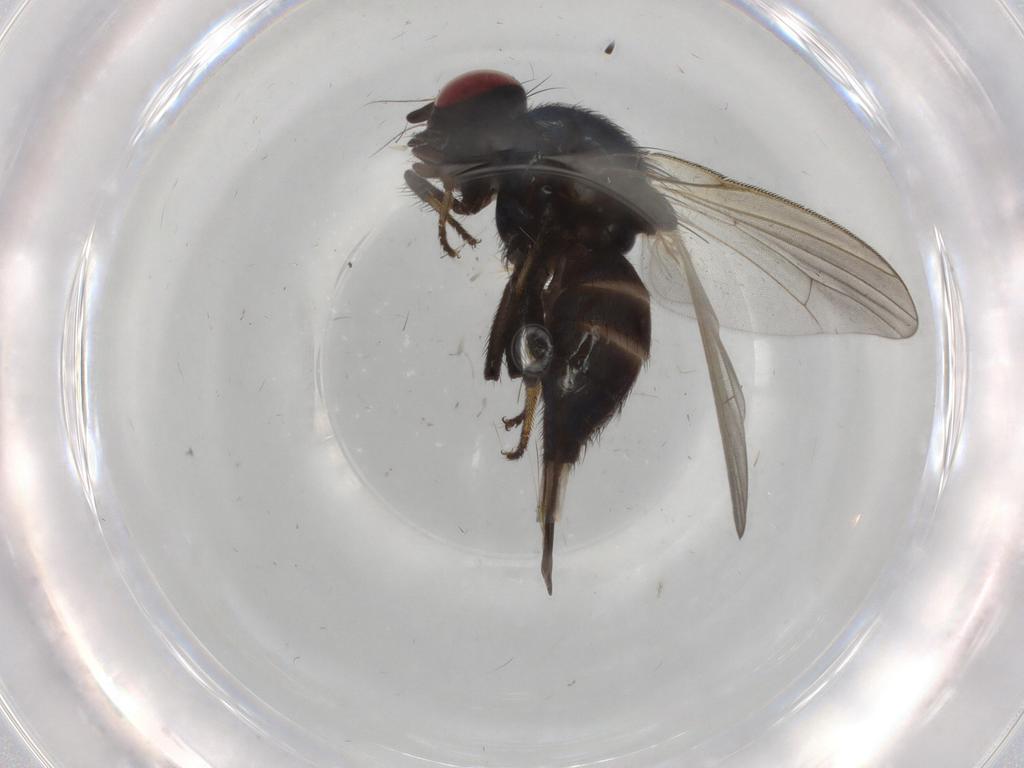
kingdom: Animalia
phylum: Arthropoda
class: Insecta
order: Diptera
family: Lonchaeidae
